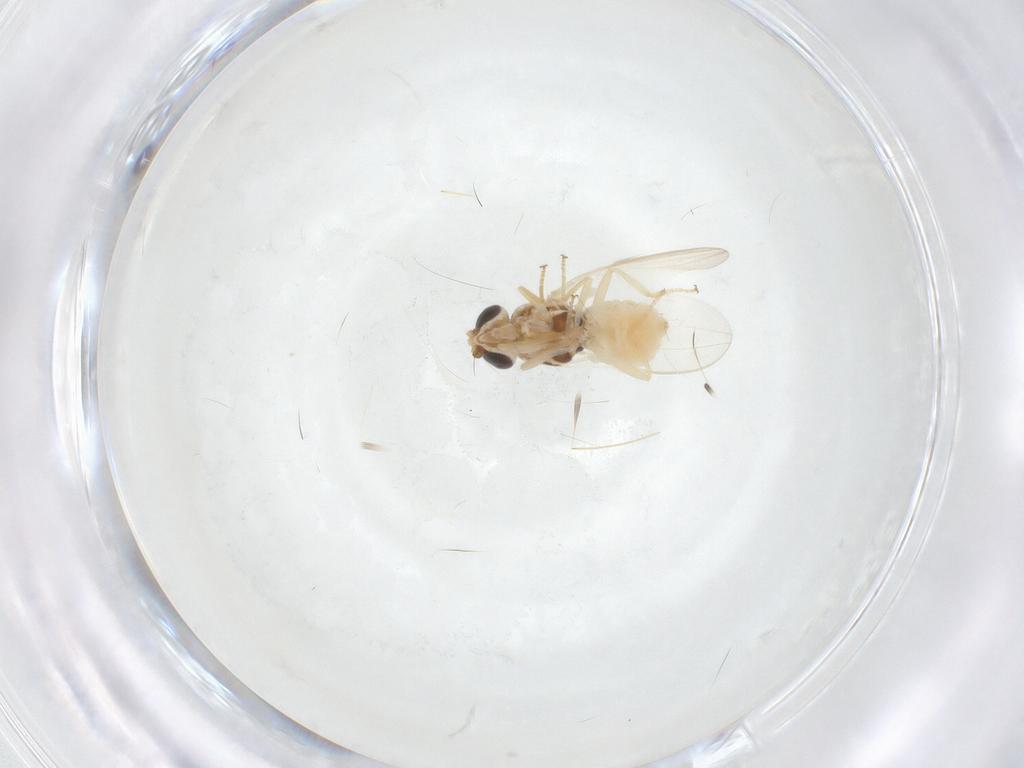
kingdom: Animalia
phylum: Arthropoda
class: Insecta
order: Diptera
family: Chloropidae
